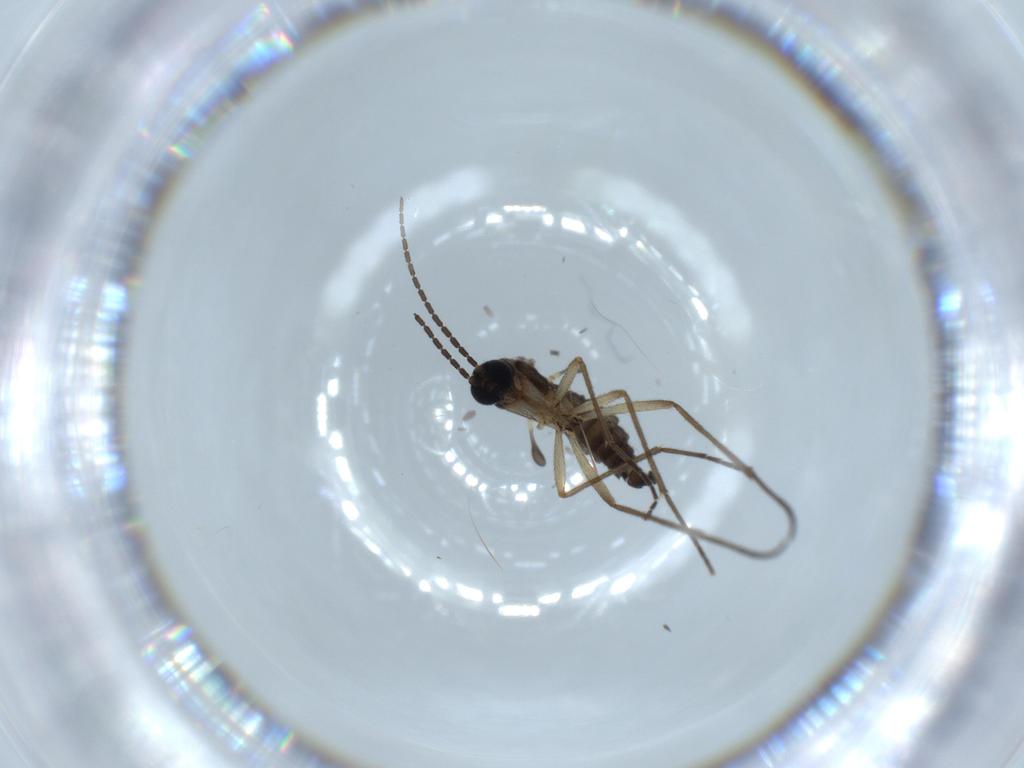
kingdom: Animalia
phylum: Arthropoda
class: Insecta
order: Diptera
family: Sciaridae
